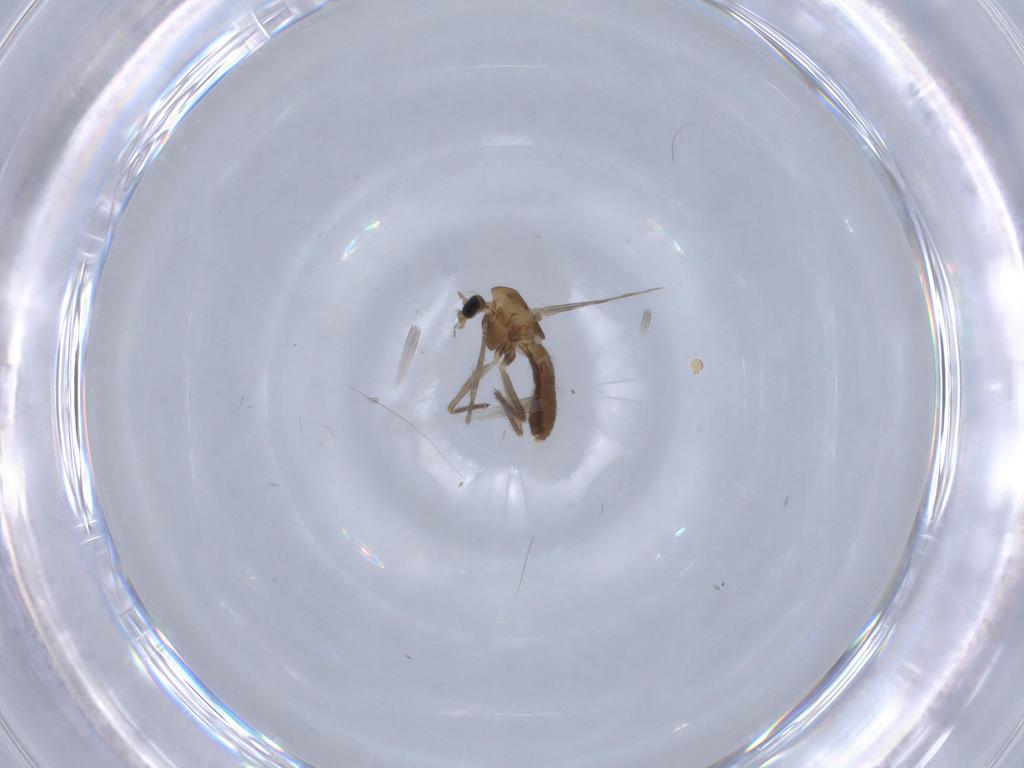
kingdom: Animalia
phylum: Arthropoda
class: Insecta
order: Diptera
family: Chironomidae
